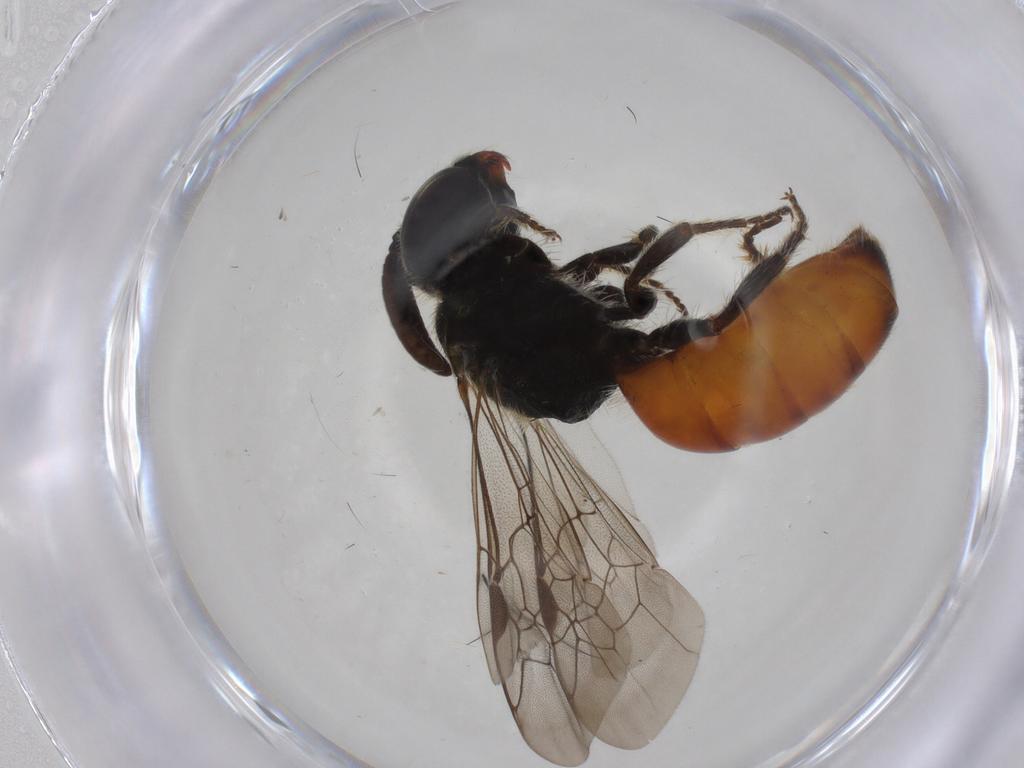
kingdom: Animalia
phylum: Arthropoda
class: Insecta
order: Hymenoptera
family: Halictidae
